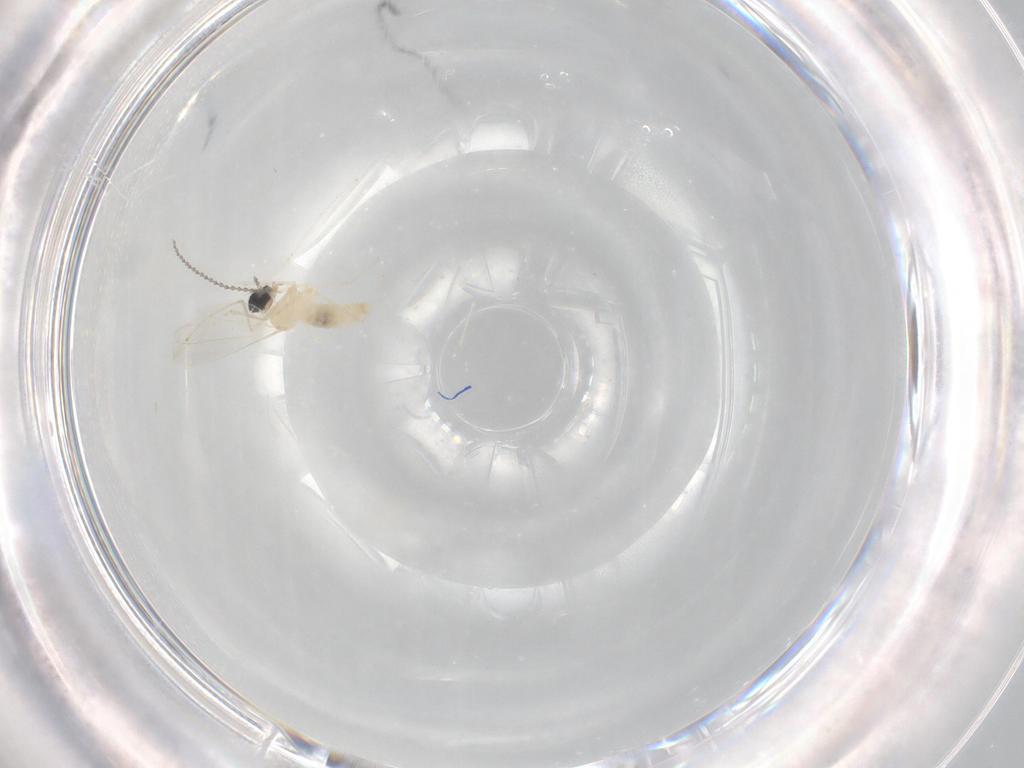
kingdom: Animalia
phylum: Arthropoda
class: Insecta
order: Diptera
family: Cecidomyiidae
